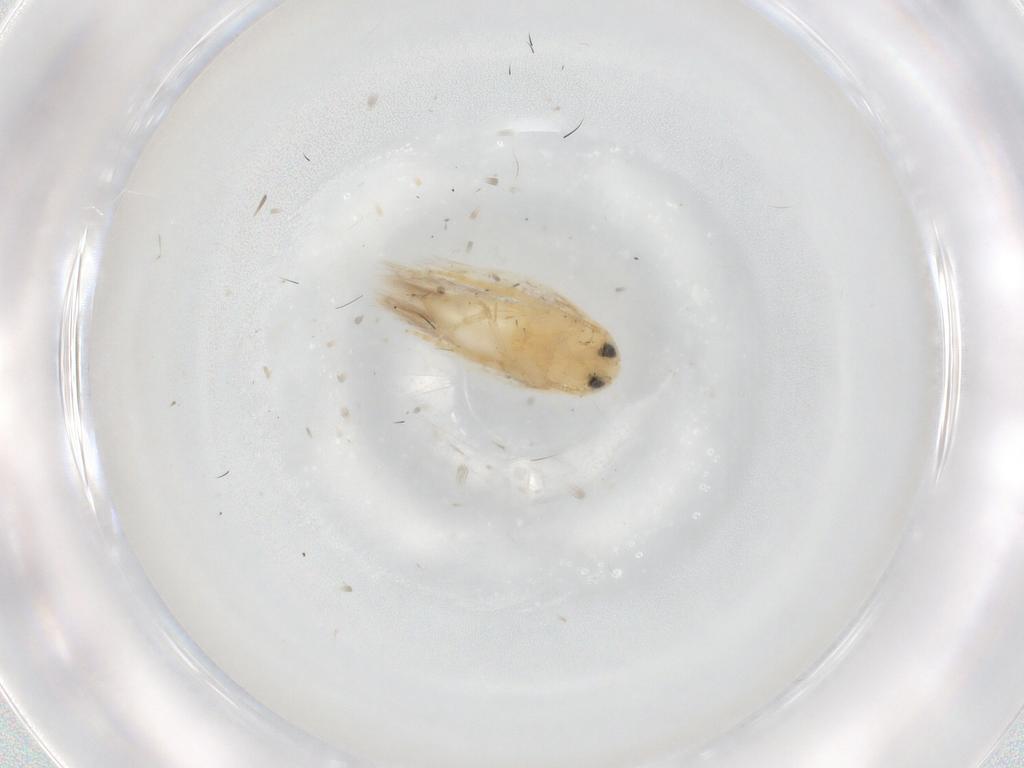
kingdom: Animalia
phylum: Arthropoda
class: Insecta
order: Lepidoptera
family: Opostegidae
